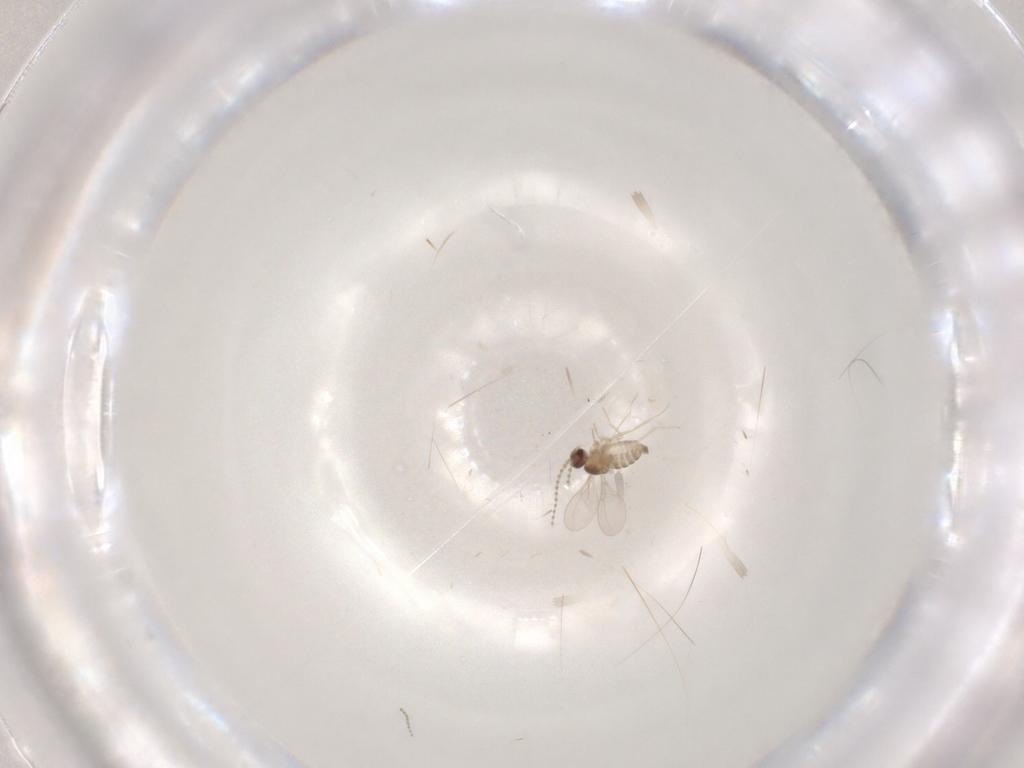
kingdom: Animalia
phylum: Arthropoda
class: Insecta
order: Diptera
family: Cecidomyiidae
